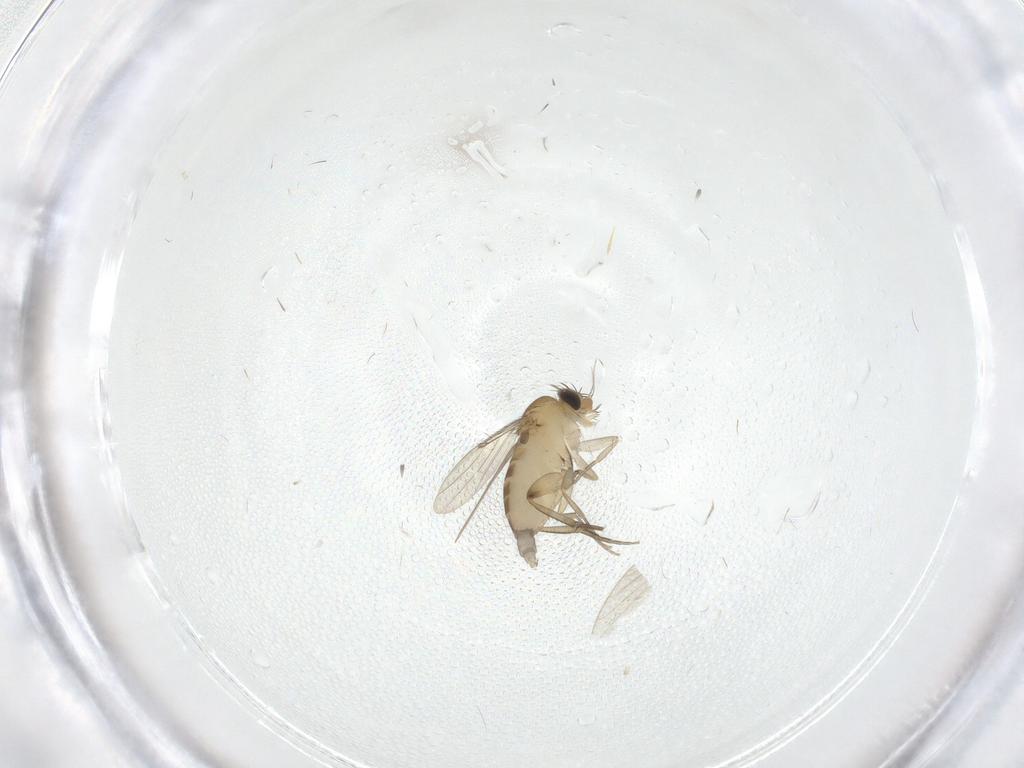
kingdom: Animalia
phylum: Arthropoda
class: Insecta
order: Diptera
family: Phoridae
